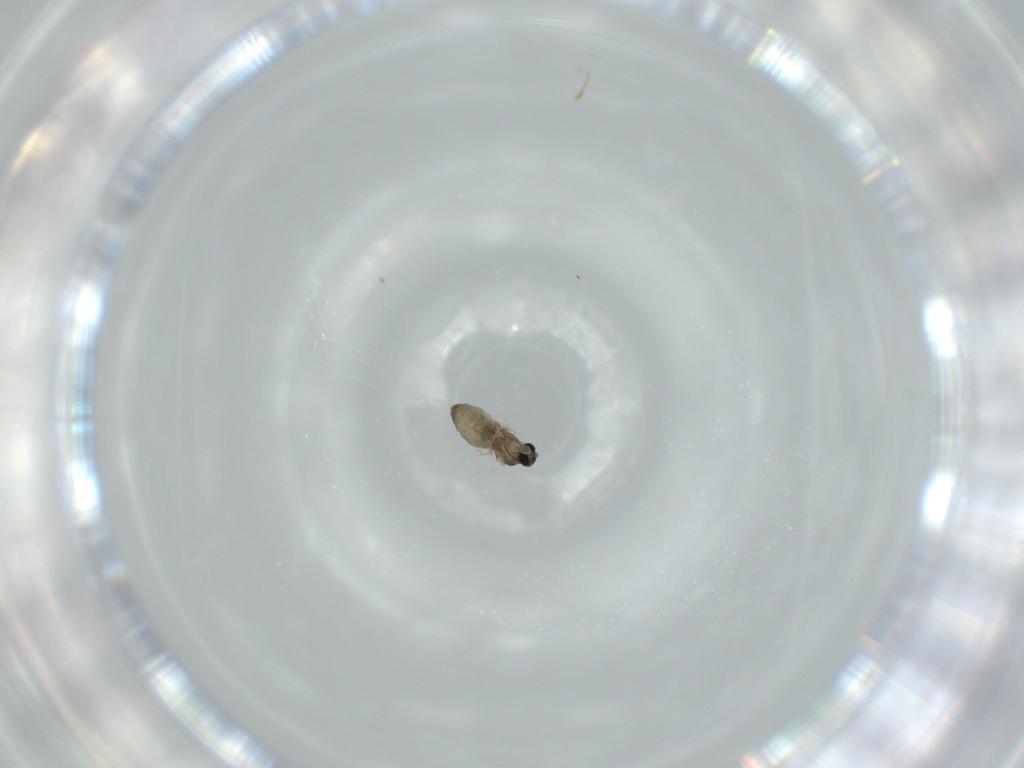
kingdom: Animalia
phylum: Arthropoda
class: Insecta
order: Diptera
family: Cecidomyiidae
